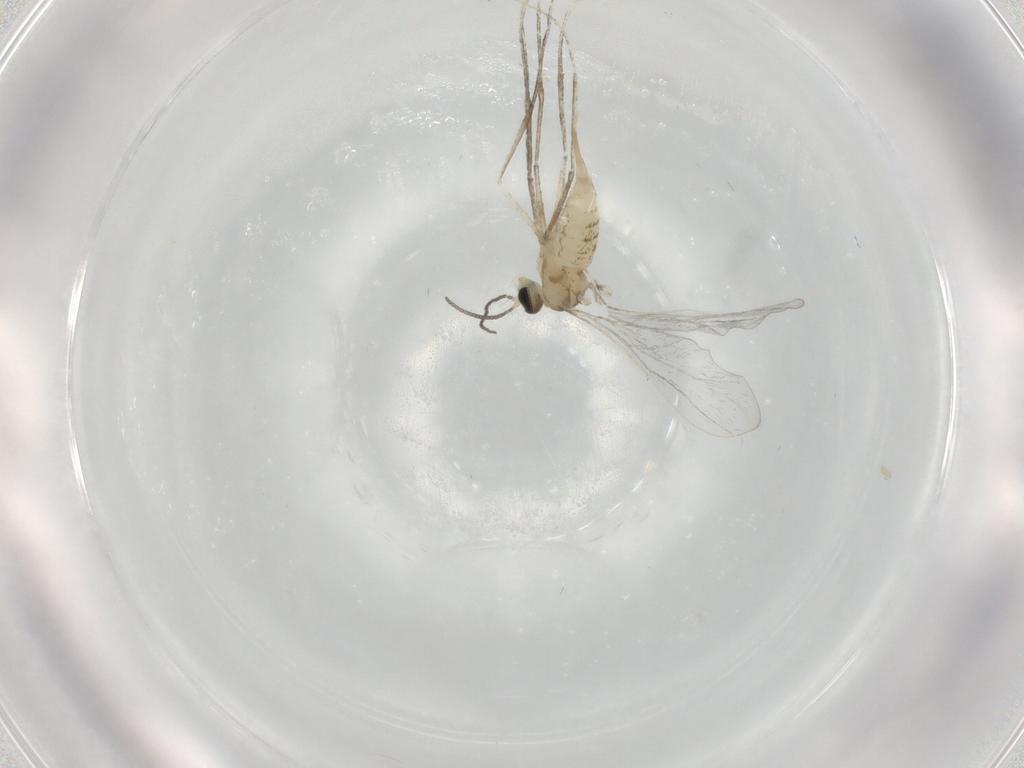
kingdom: Animalia
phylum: Arthropoda
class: Insecta
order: Diptera
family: Cecidomyiidae
